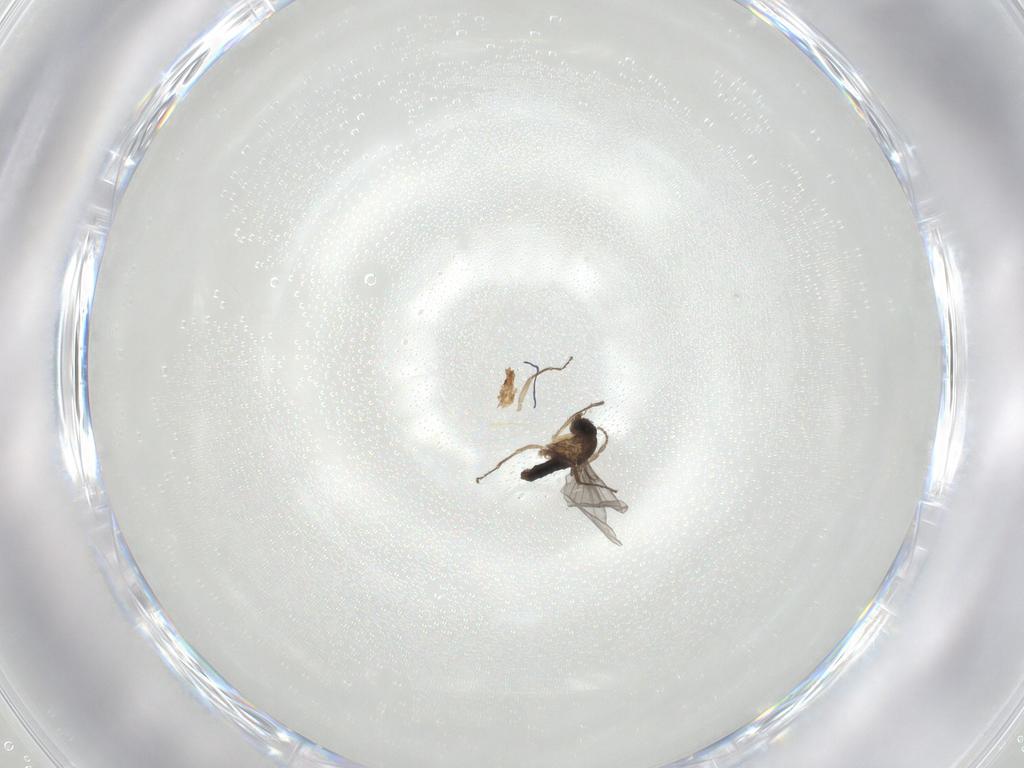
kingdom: Animalia
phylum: Arthropoda
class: Insecta
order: Diptera
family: Phoridae
